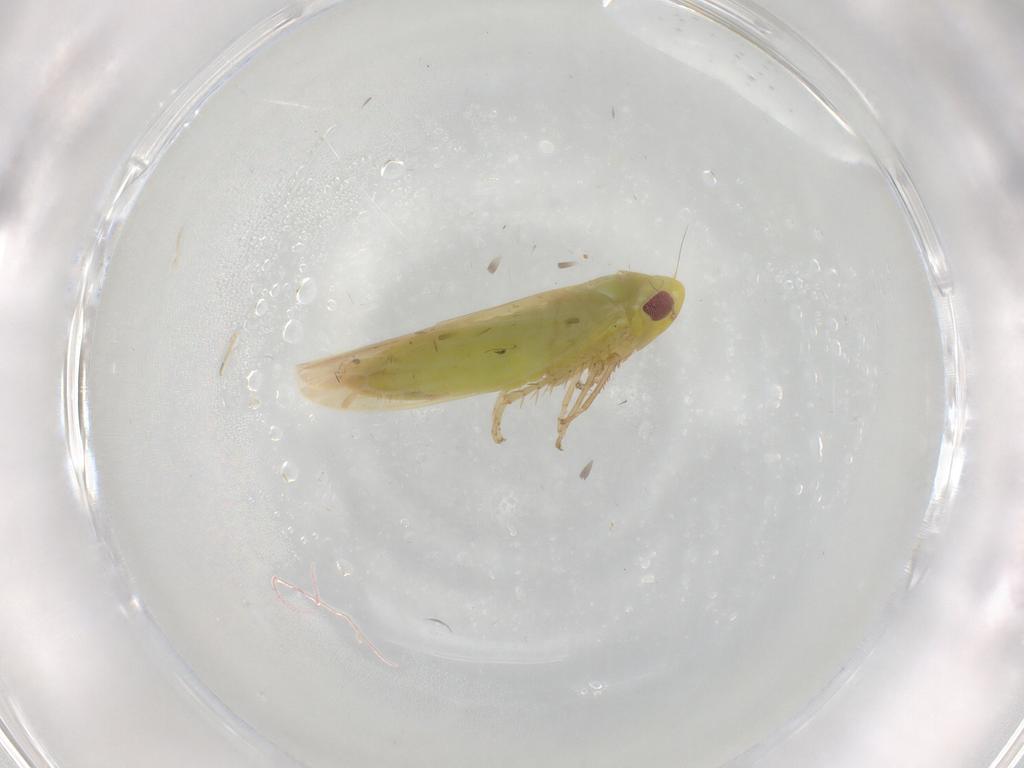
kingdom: Animalia
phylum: Arthropoda
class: Insecta
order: Hemiptera
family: Cicadellidae
